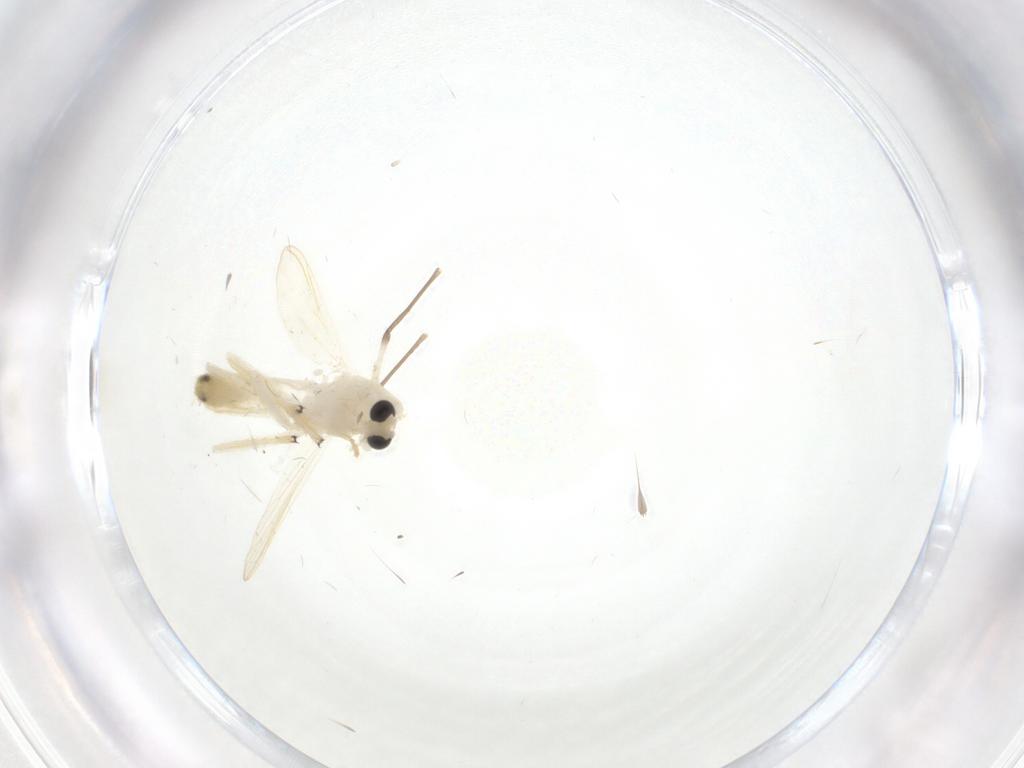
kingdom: Animalia
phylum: Arthropoda
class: Insecta
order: Diptera
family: Chironomidae
